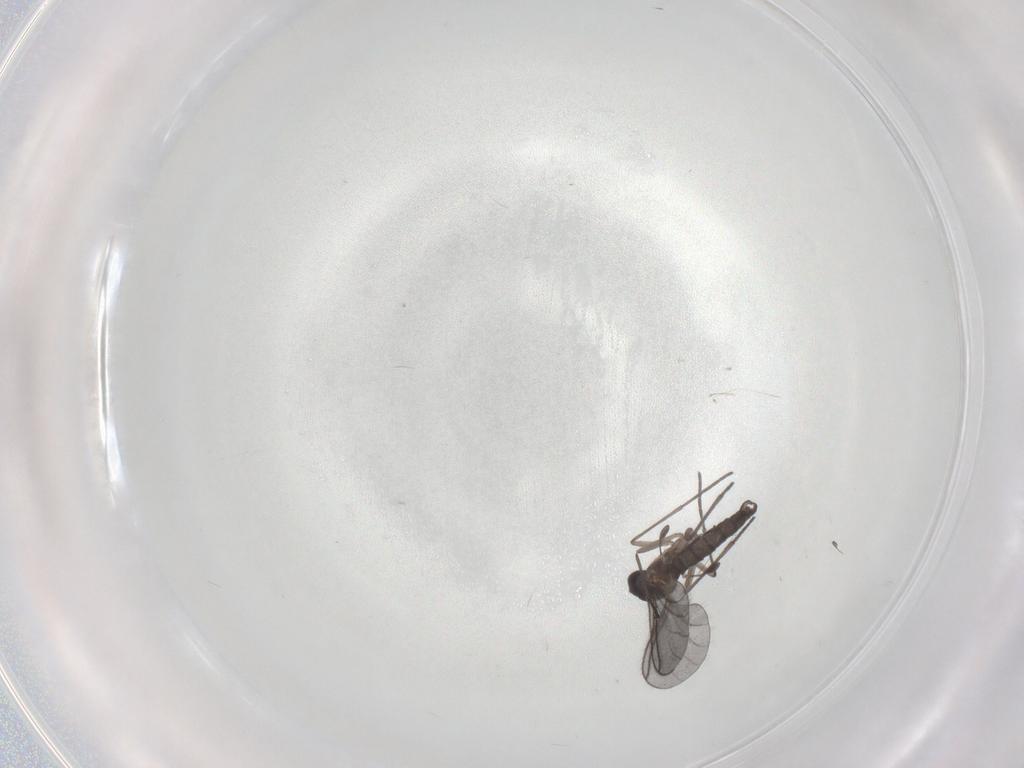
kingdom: Animalia
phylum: Arthropoda
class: Insecta
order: Diptera
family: Sciaridae
